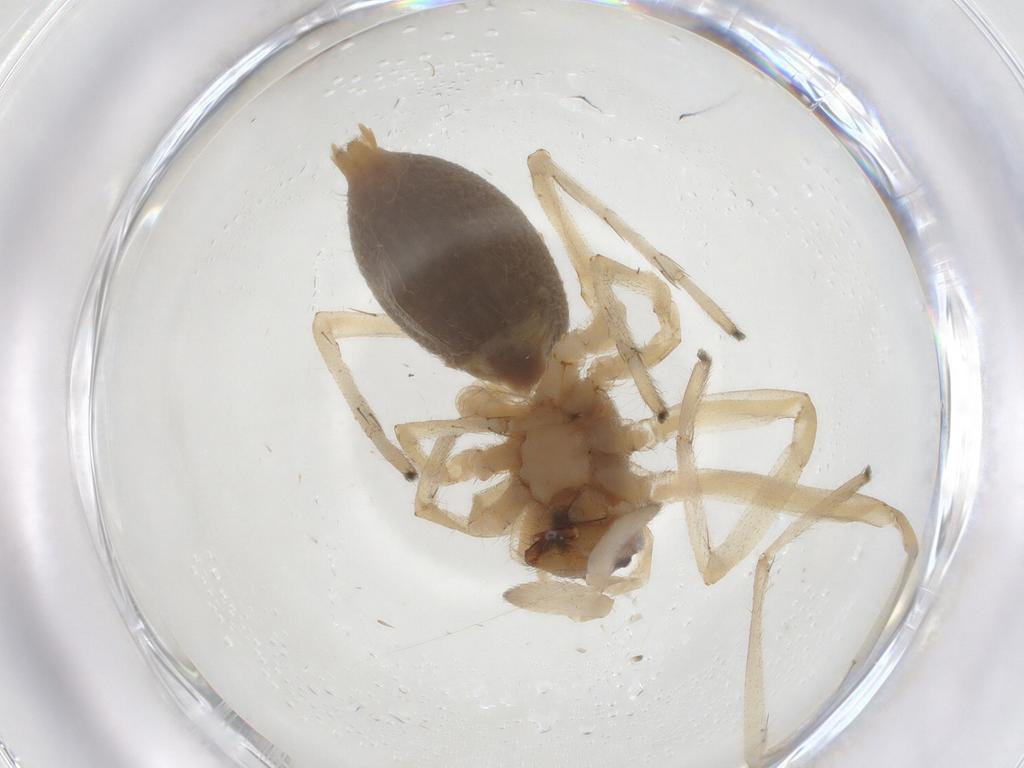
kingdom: Animalia
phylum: Arthropoda
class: Arachnida
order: Araneae
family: Cheiracanthiidae
